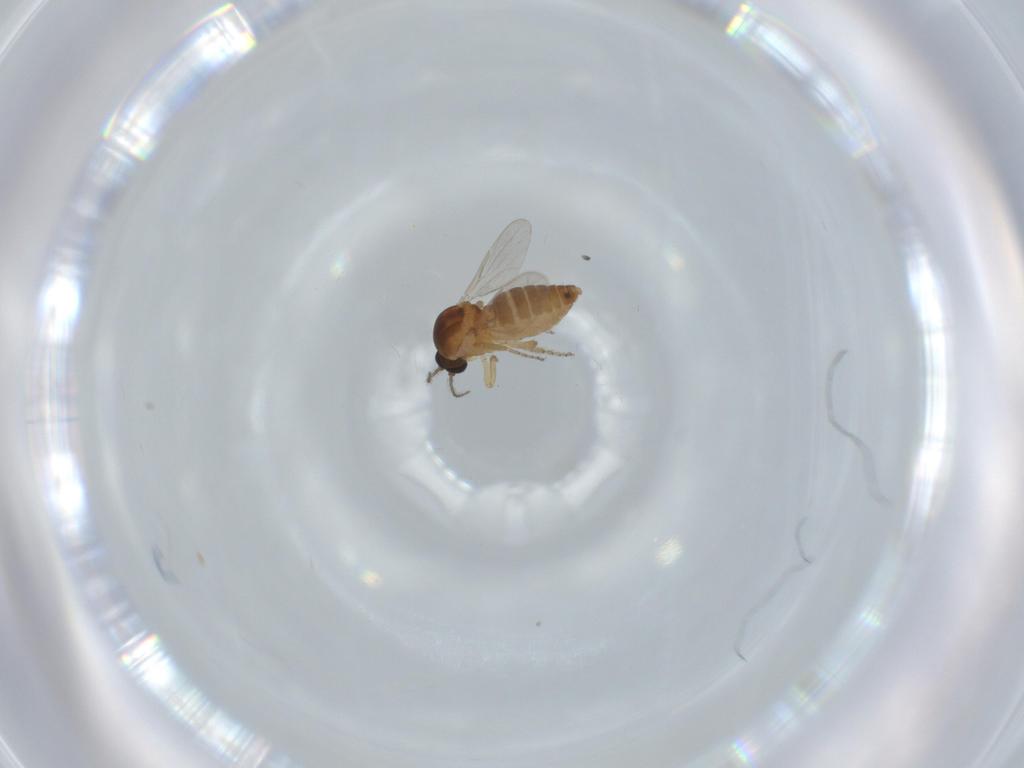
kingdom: Animalia
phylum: Arthropoda
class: Insecta
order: Diptera
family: Ceratopogonidae
